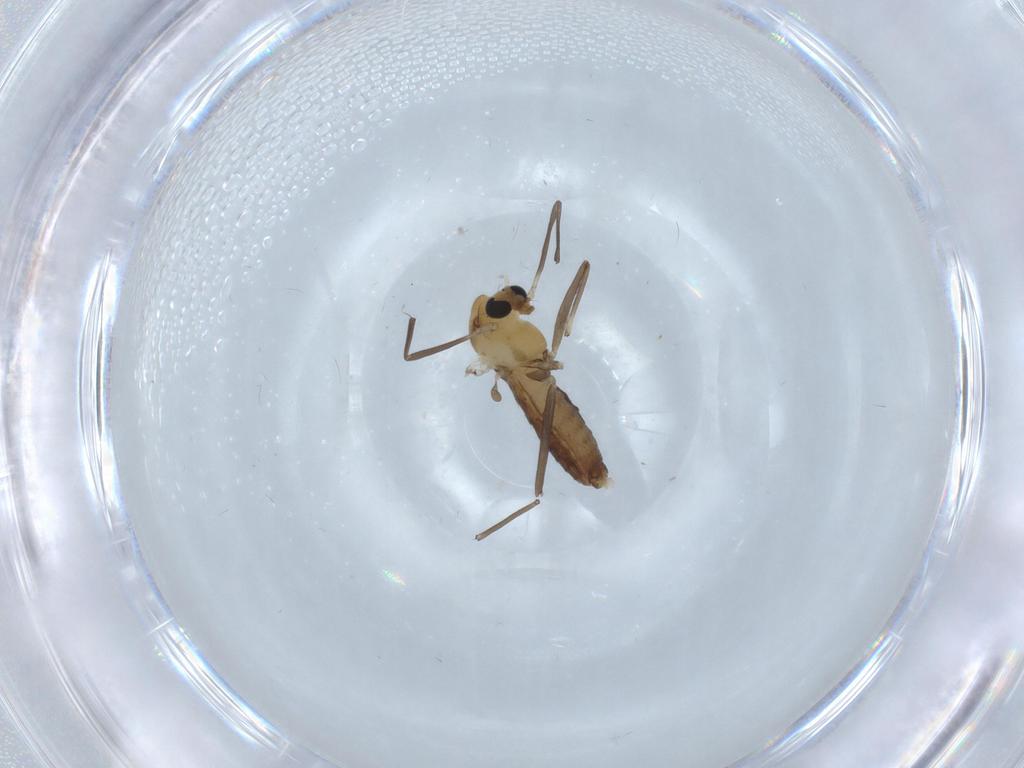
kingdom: Animalia
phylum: Arthropoda
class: Insecta
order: Diptera
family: Chironomidae
